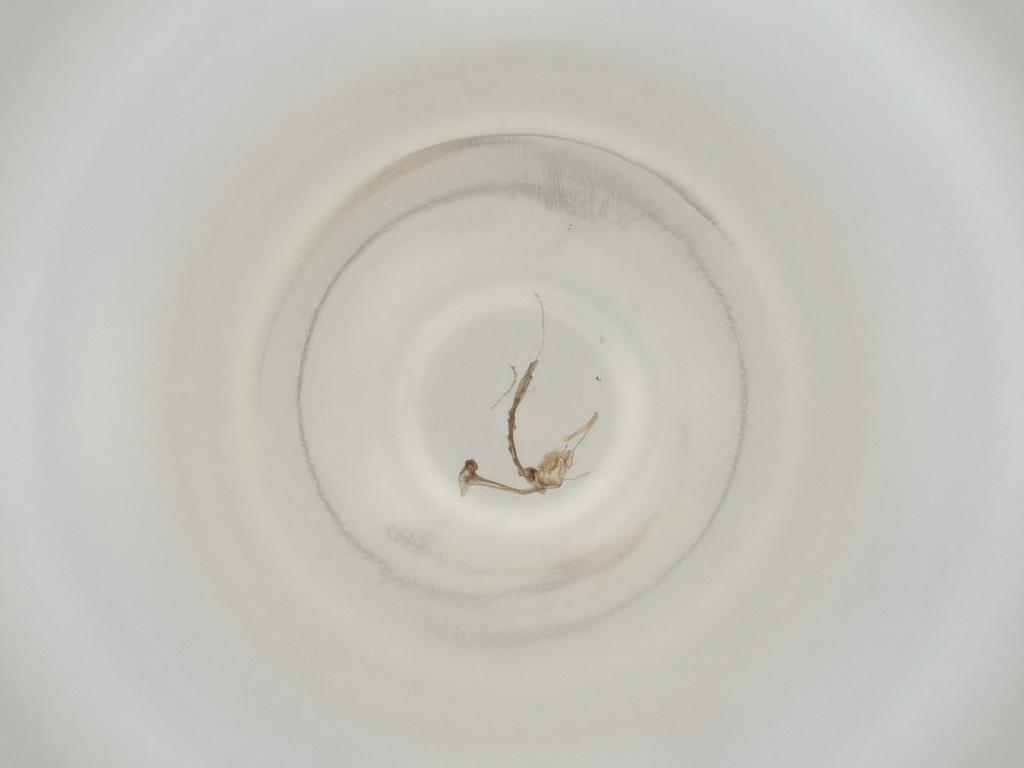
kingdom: Animalia
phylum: Arthropoda
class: Insecta
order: Diptera
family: Cecidomyiidae
